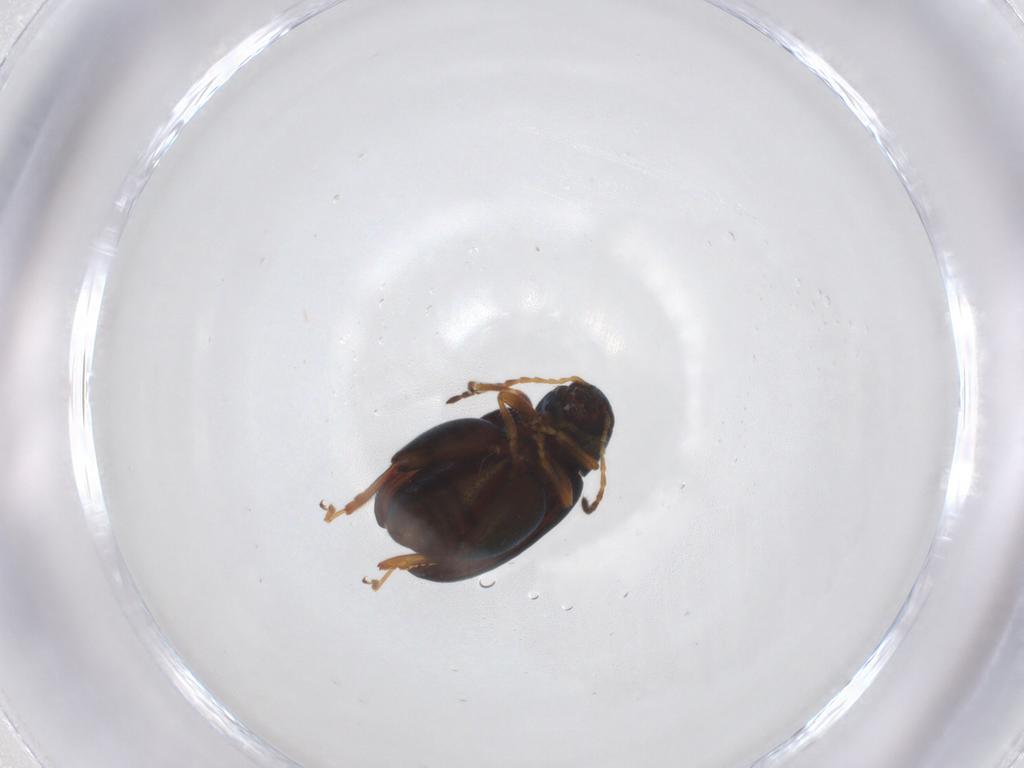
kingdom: Animalia
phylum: Arthropoda
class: Insecta
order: Coleoptera
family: Chrysomelidae
